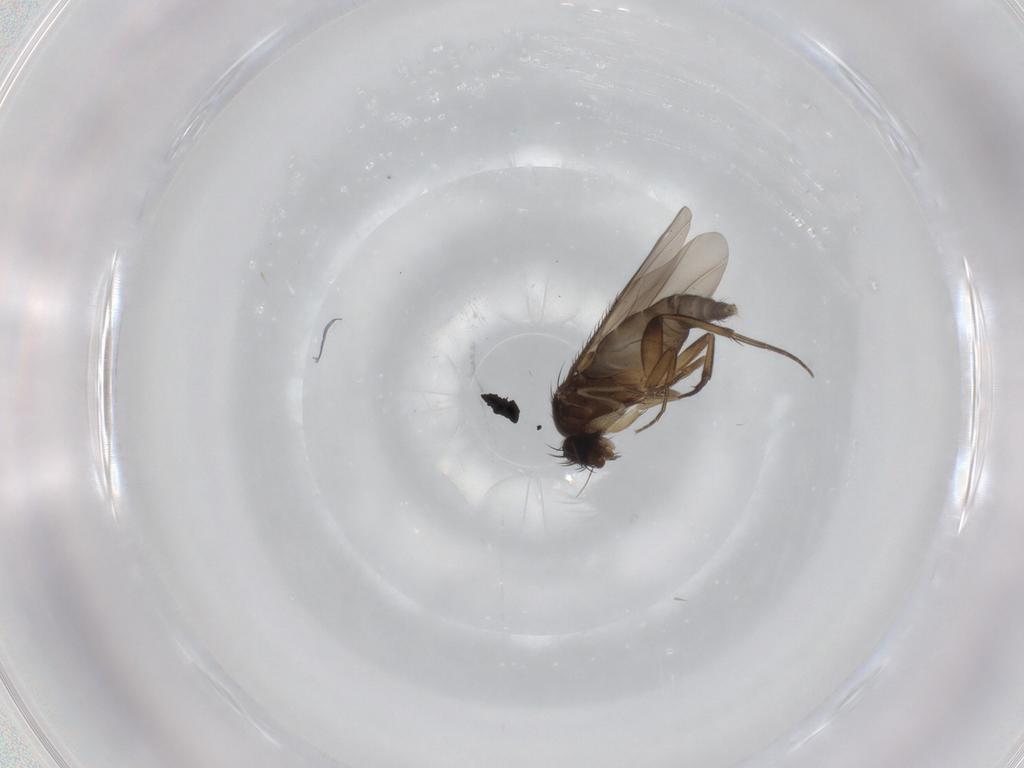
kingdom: Animalia
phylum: Arthropoda
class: Insecta
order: Diptera
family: Phoridae
